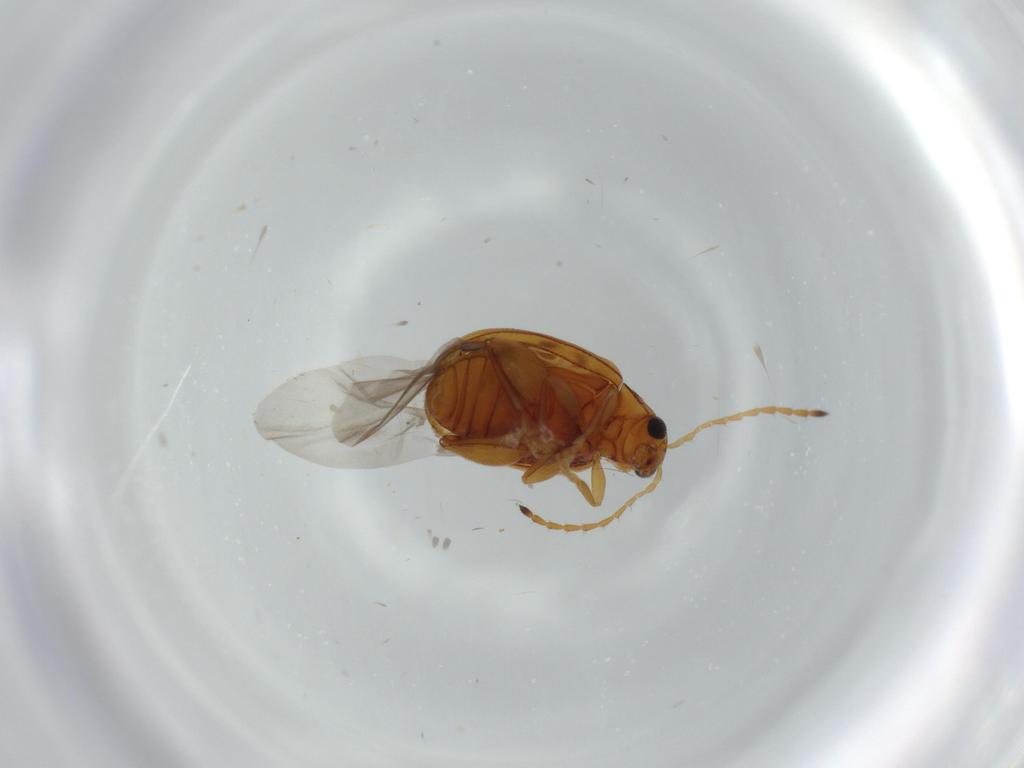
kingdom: Animalia
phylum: Arthropoda
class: Insecta
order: Coleoptera
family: Chrysomelidae
